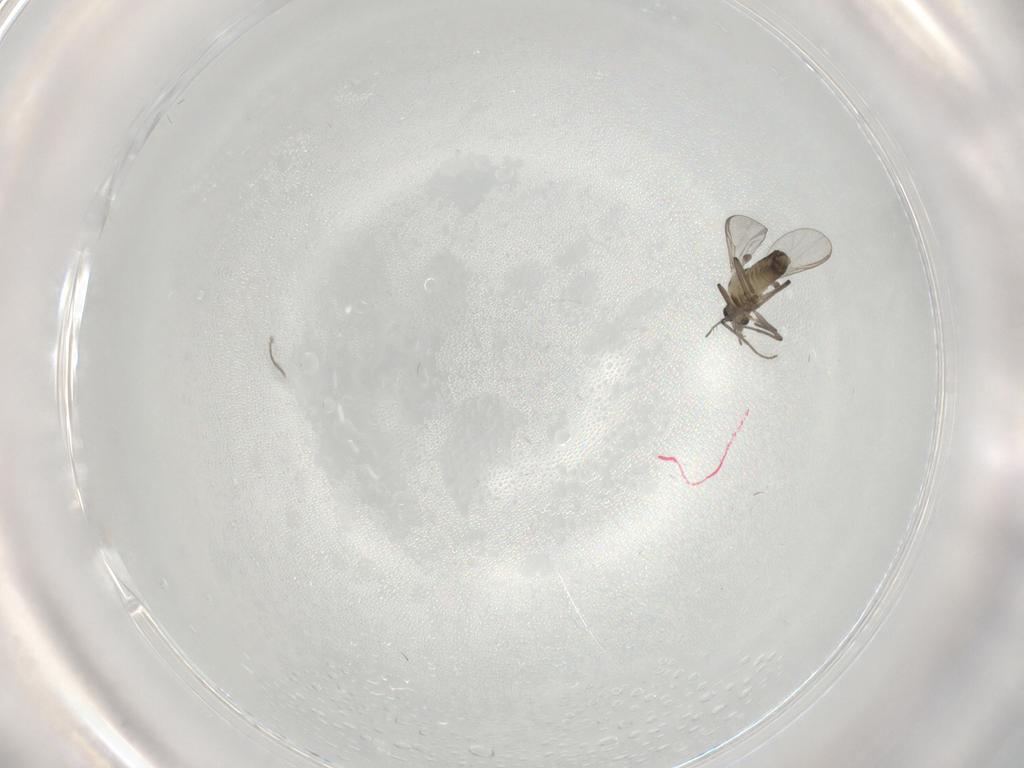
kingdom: Animalia
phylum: Arthropoda
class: Insecta
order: Diptera
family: Chironomidae
